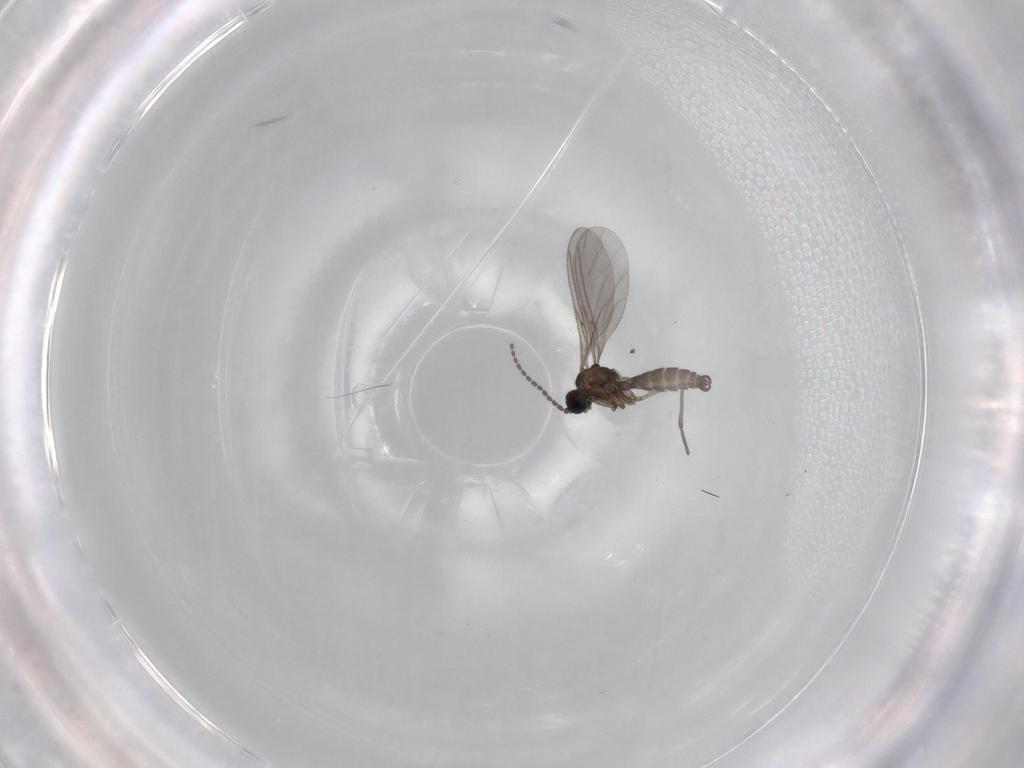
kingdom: Animalia
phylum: Arthropoda
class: Insecta
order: Diptera
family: Sciaridae
